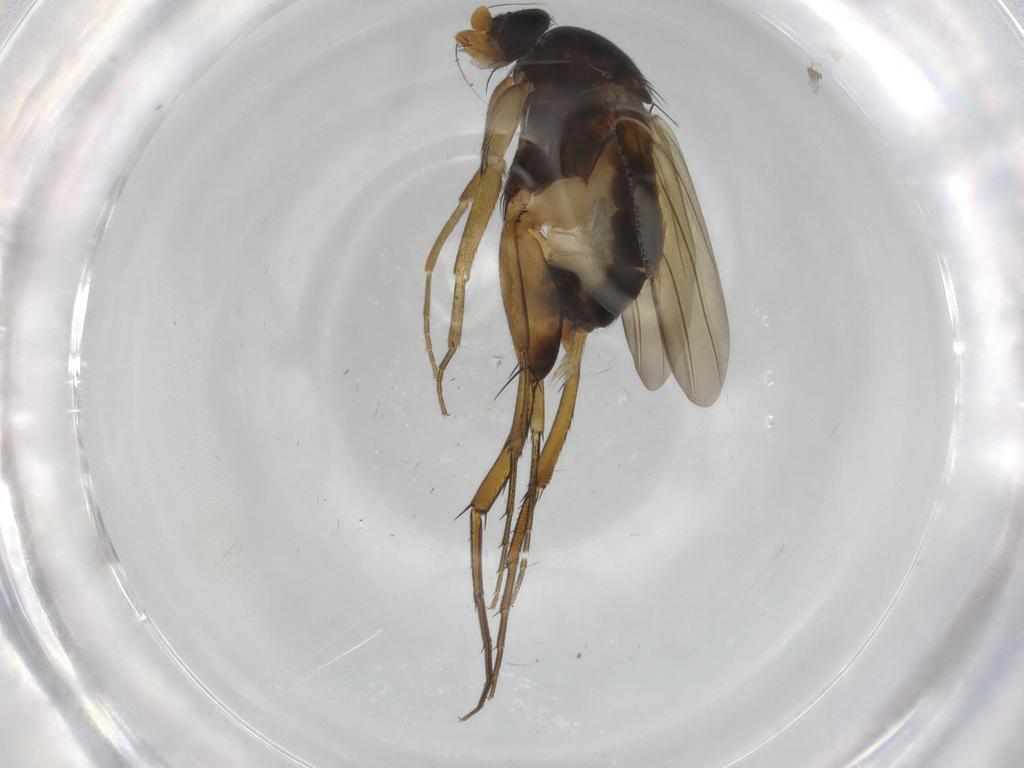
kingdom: Animalia
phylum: Arthropoda
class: Insecta
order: Diptera
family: Phoridae
